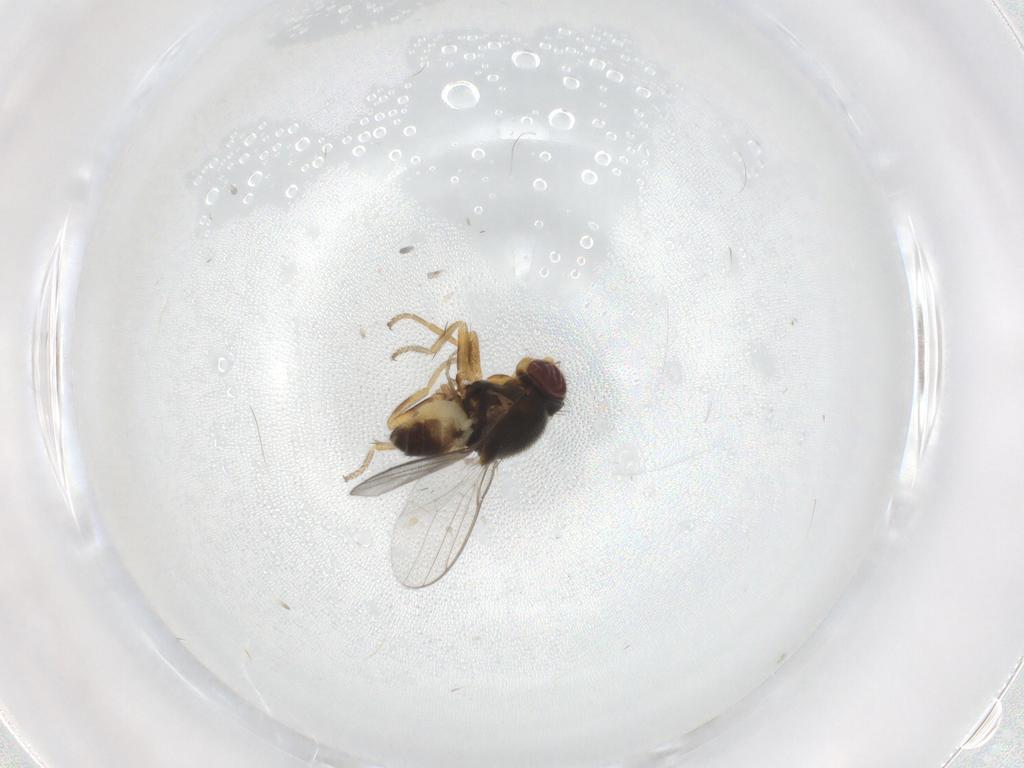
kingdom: Animalia
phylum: Arthropoda
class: Insecta
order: Diptera
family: Chloropidae
